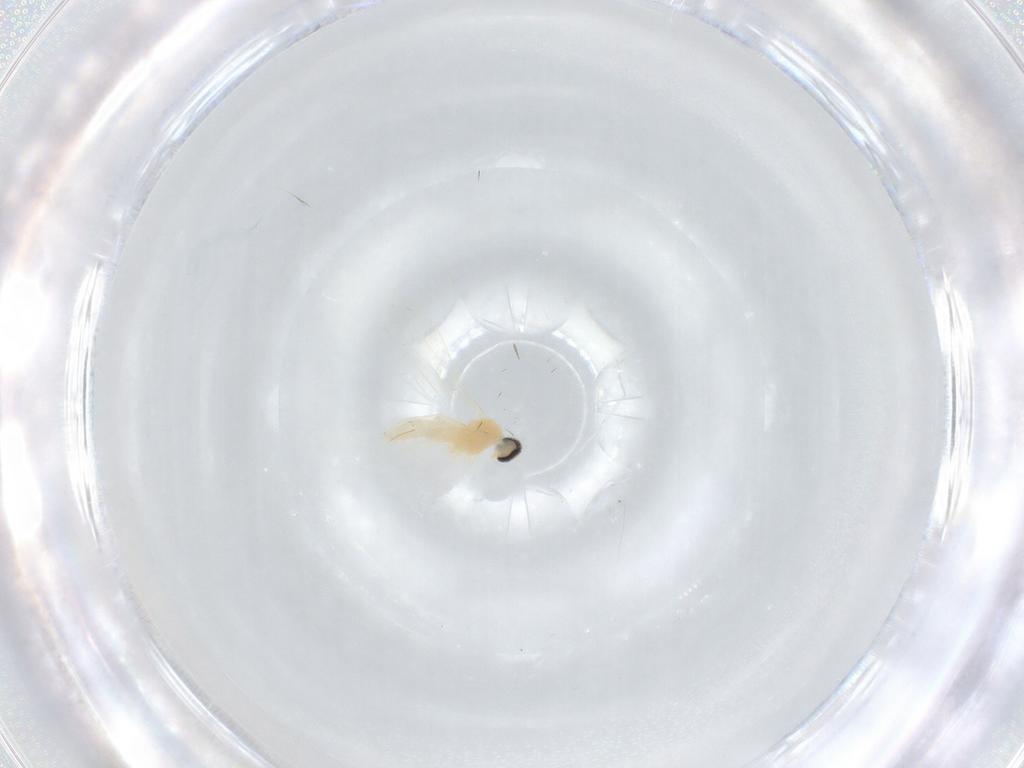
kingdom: Animalia
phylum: Arthropoda
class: Insecta
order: Diptera
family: Cecidomyiidae
